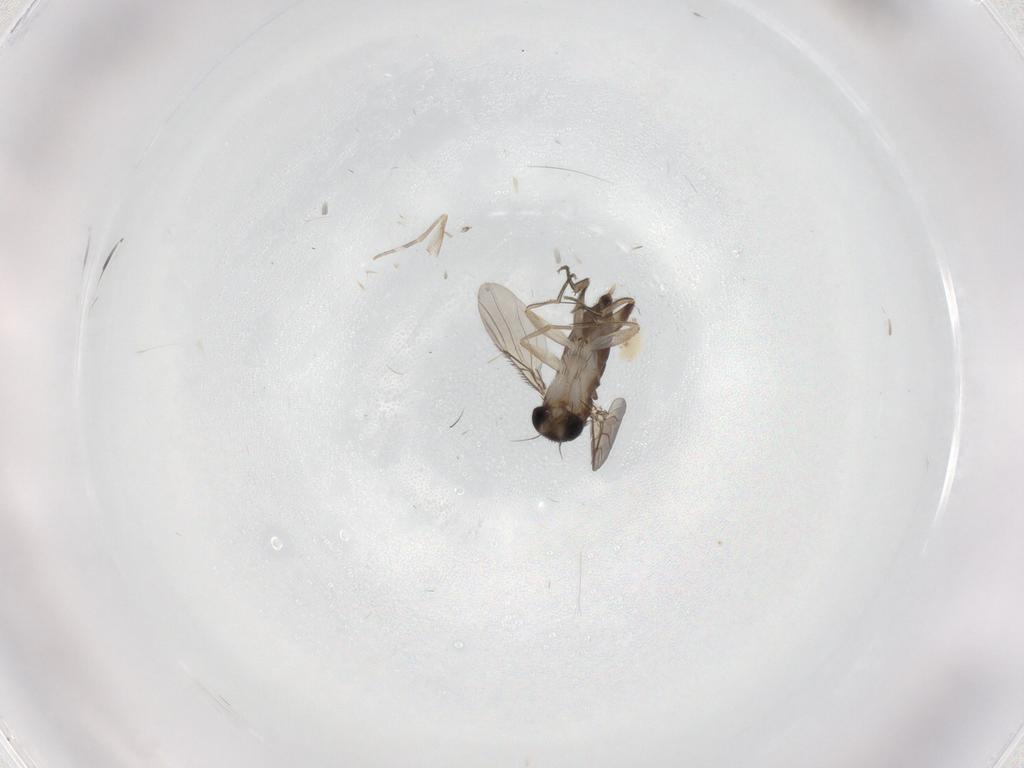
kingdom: Animalia
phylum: Arthropoda
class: Insecta
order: Diptera
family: Phoridae
